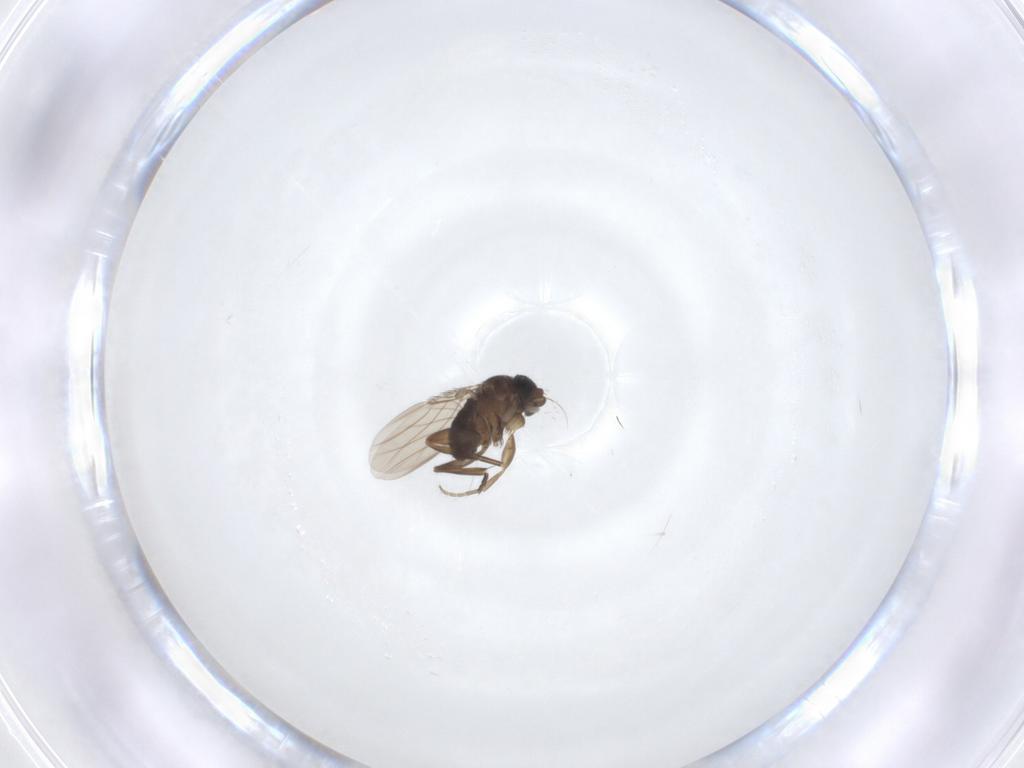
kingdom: Animalia
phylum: Arthropoda
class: Insecta
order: Diptera
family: Phoridae
